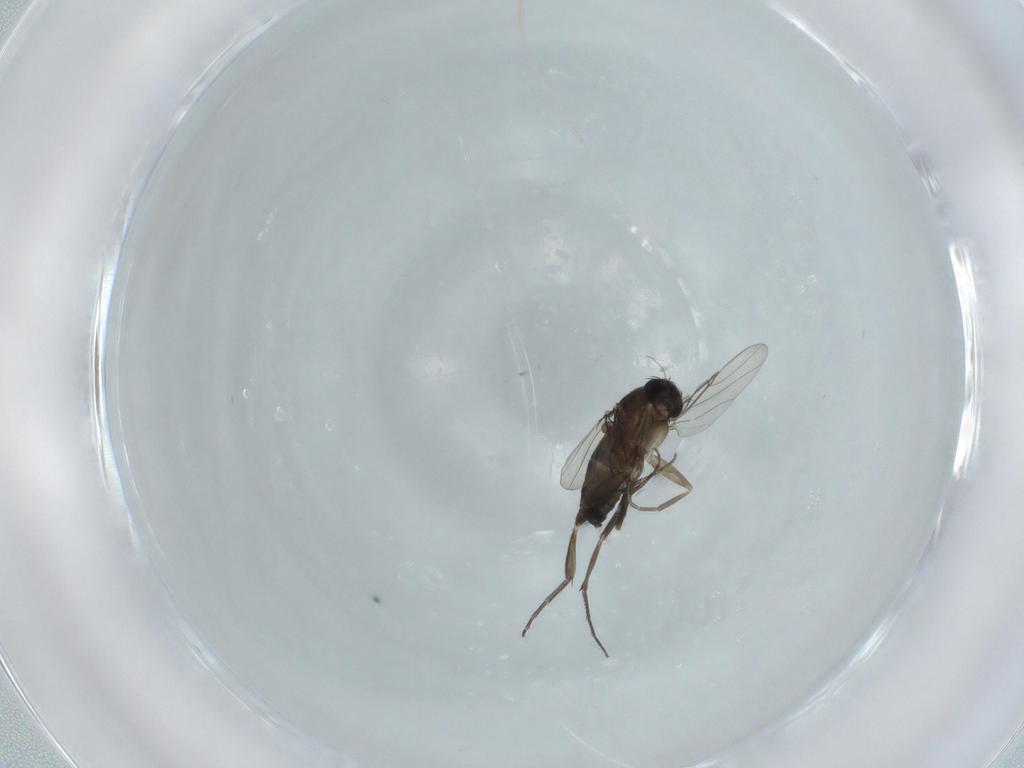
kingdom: Animalia
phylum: Arthropoda
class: Insecta
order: Diptera
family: Phoridae
